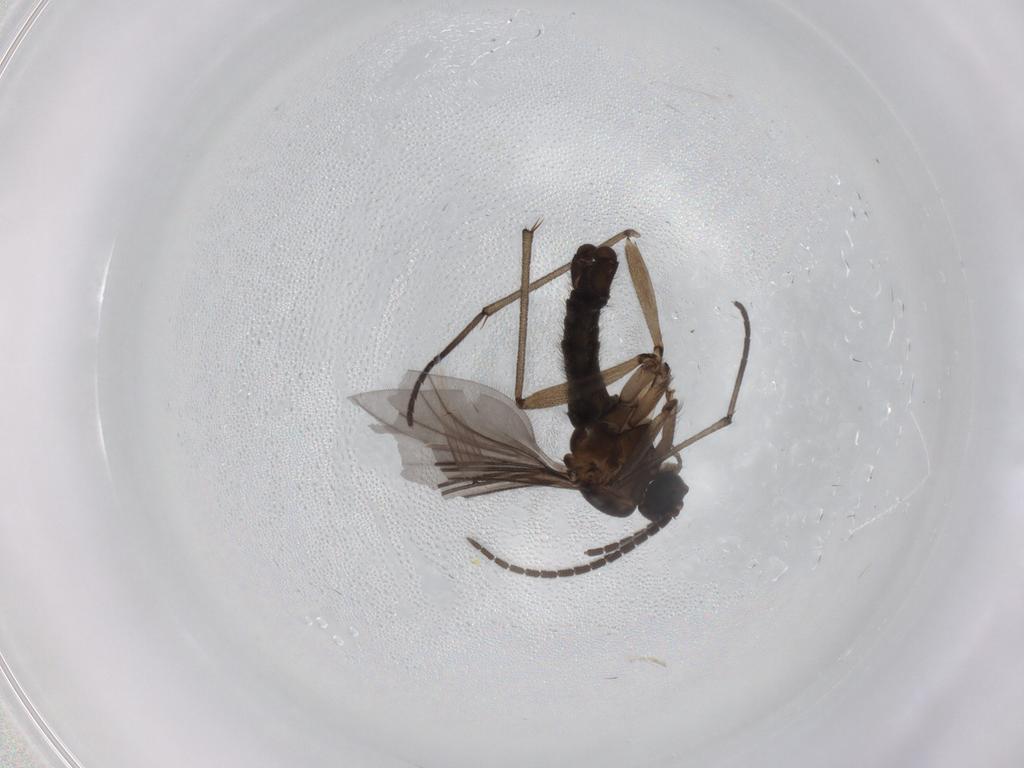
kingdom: Animalia
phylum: Arthropoda
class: Insecta
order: Diptera
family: Sciaridae
